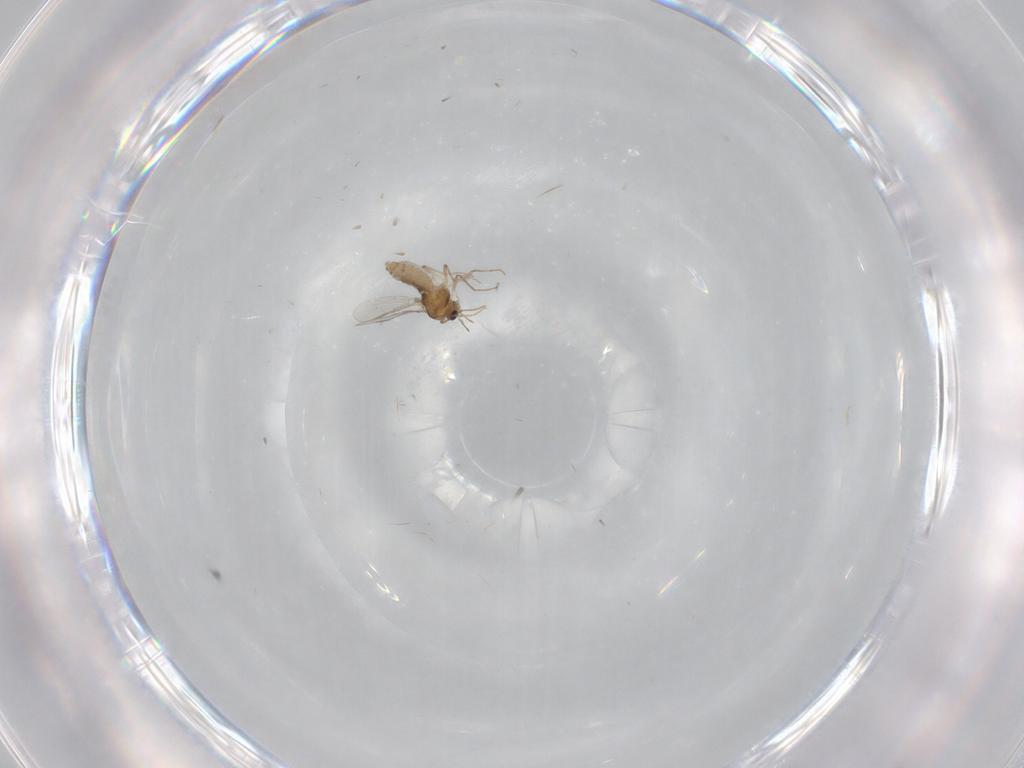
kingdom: Animalia
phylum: Arthropoda
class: Insecta
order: Diptera
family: Chironomidae
